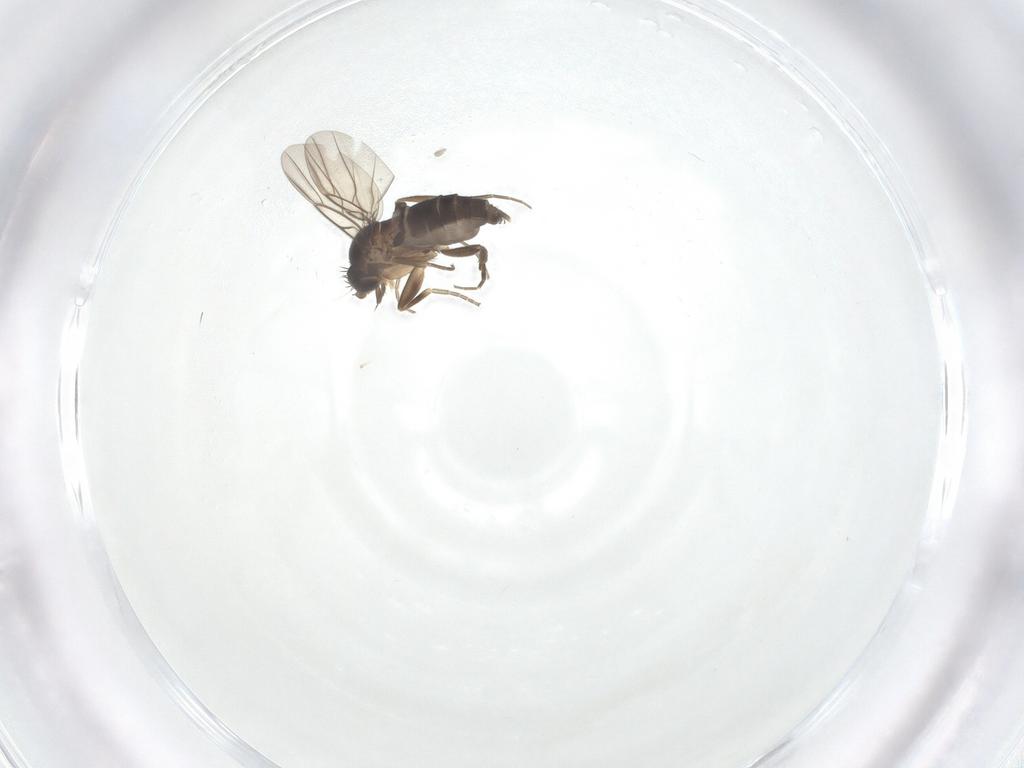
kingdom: Animalia
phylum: Arthropoda
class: Insecta
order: Diptera
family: Phoridae
